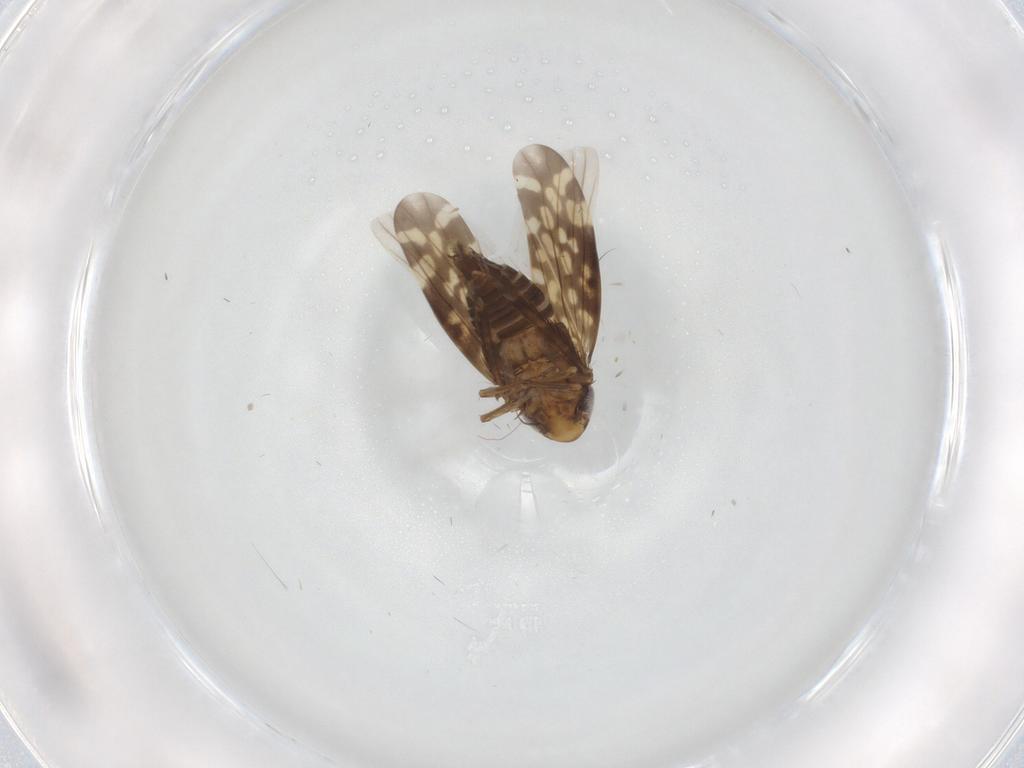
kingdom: Animalia
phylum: Arthropoda
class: Insecta
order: Hemiptera
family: Cicadellidae
